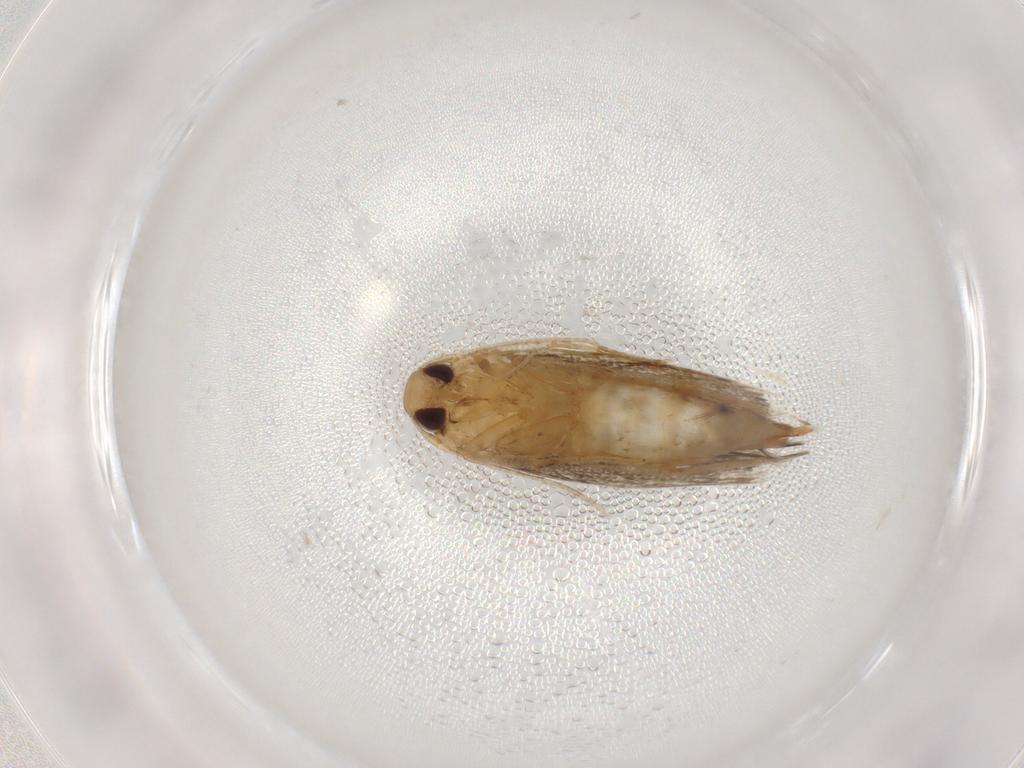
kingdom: Animalia
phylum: Arthropoda
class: Insecta
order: Lepidoptera
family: Cosmopterigidae
